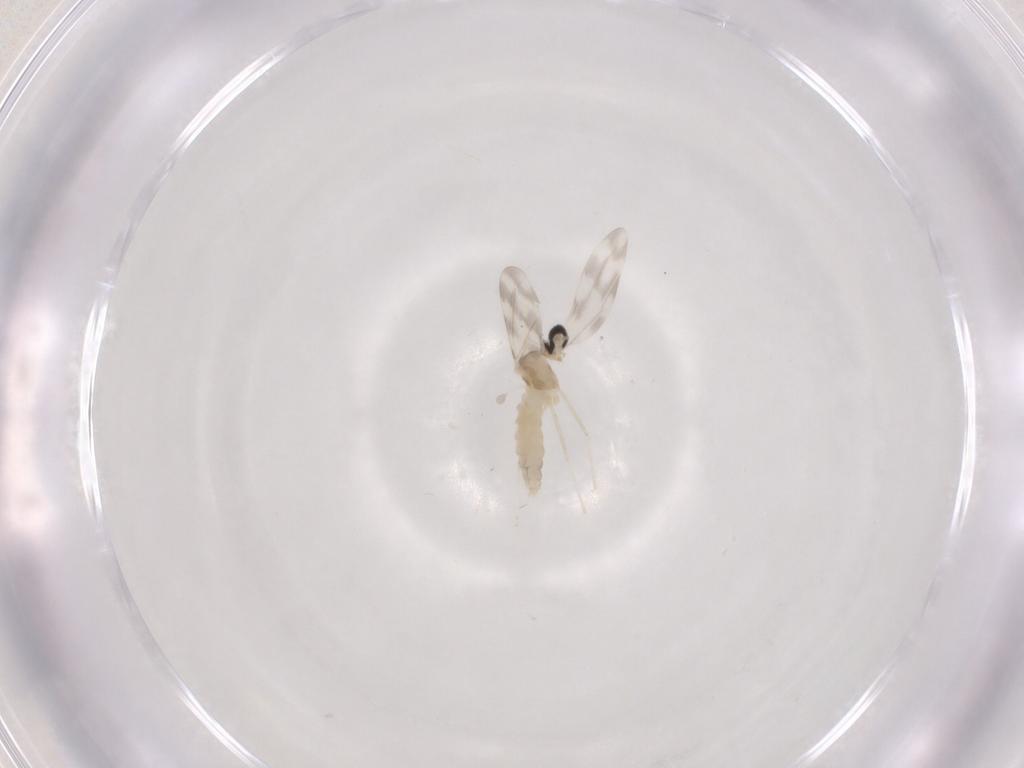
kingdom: Animalia
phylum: Arthropoda
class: Insecta
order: Diptera
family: Cecidomyiidae
